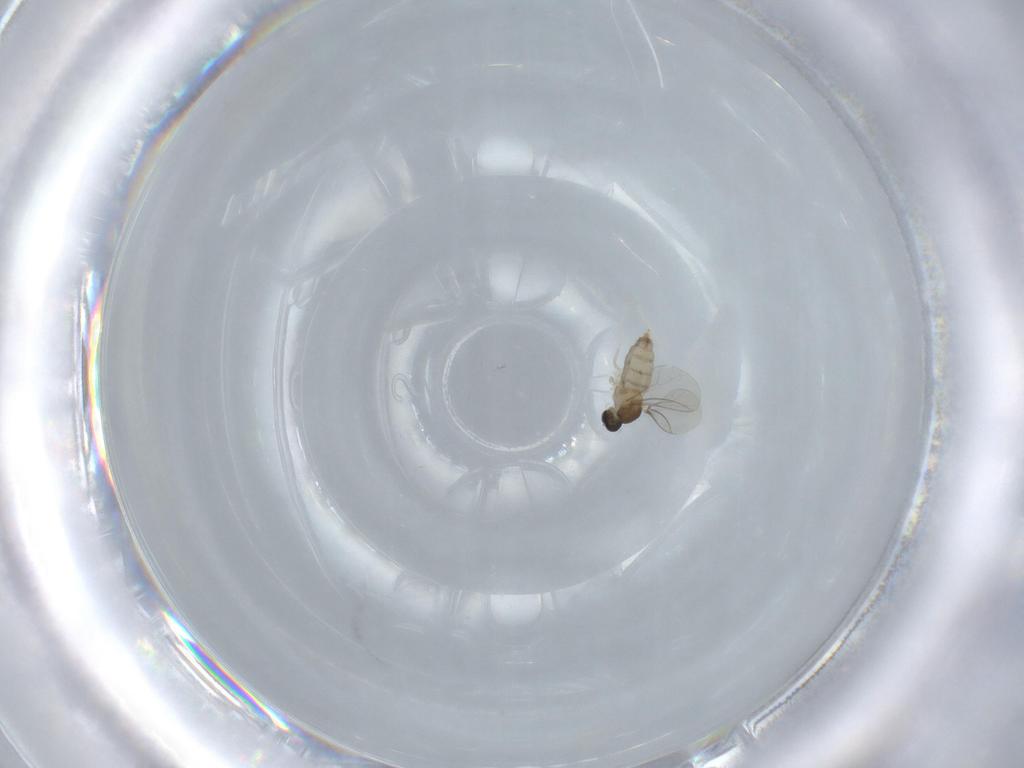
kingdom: Animalia
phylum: Arthropoda
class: Insecta
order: Diptera
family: Cecidomyiidae
